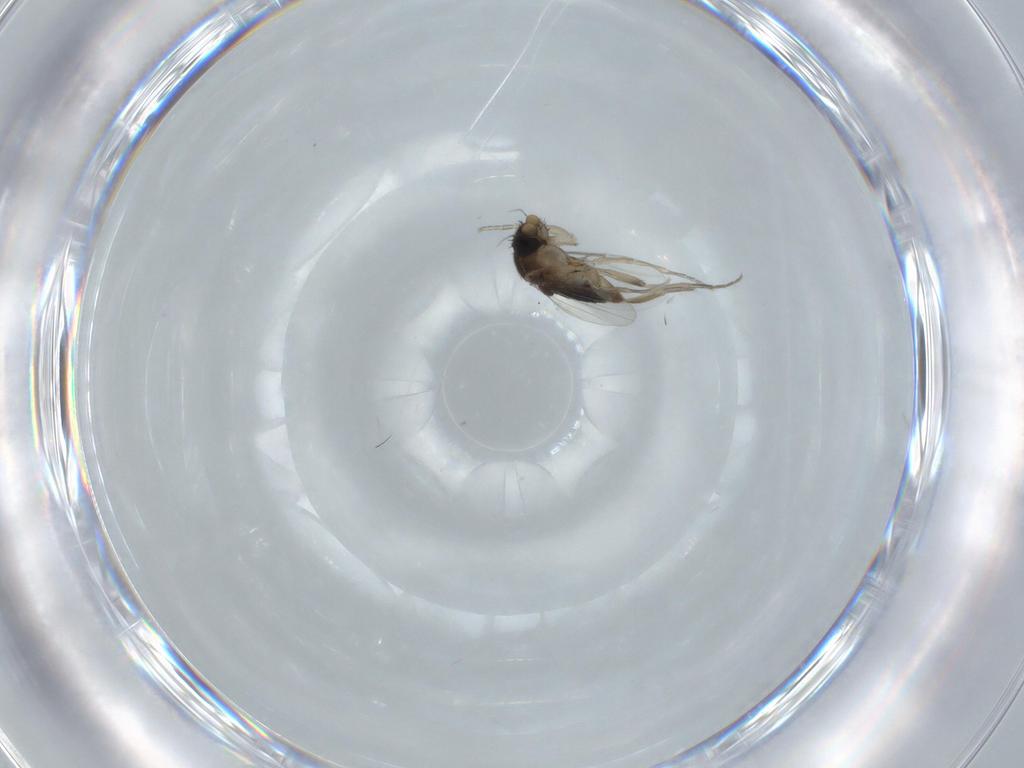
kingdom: Animalia
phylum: Arthropoda
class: Insecta
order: Diptera
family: Phoridae
